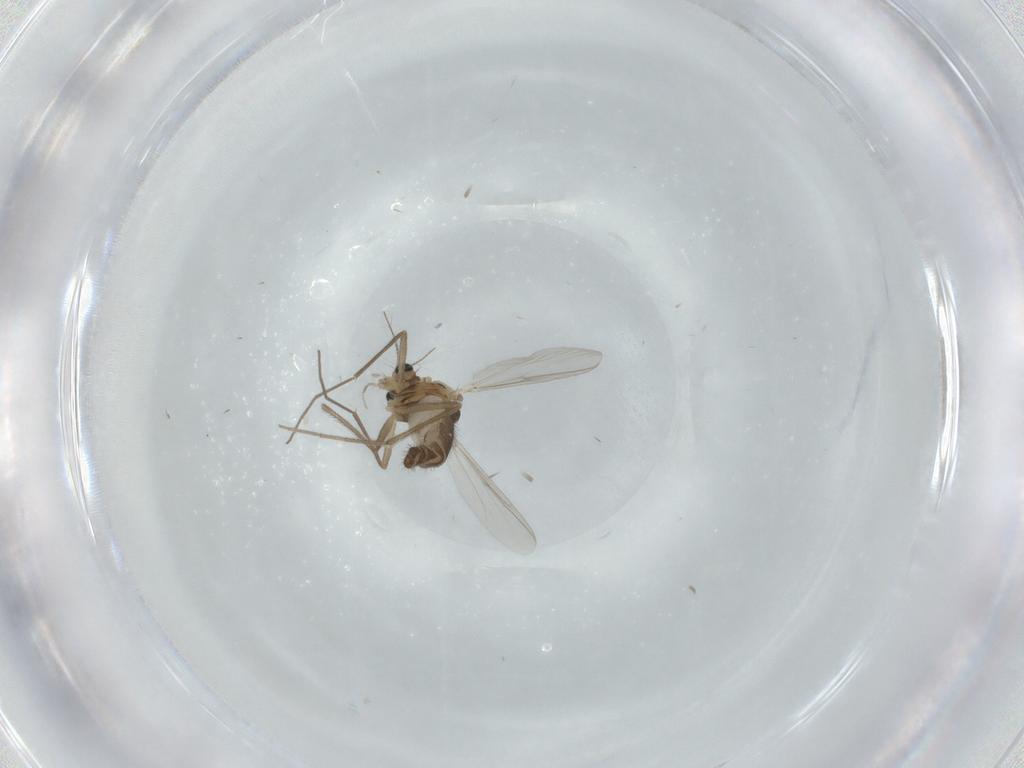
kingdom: Animalia
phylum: Arthropoda
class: Insecta
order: Diptera
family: Chironomidae
